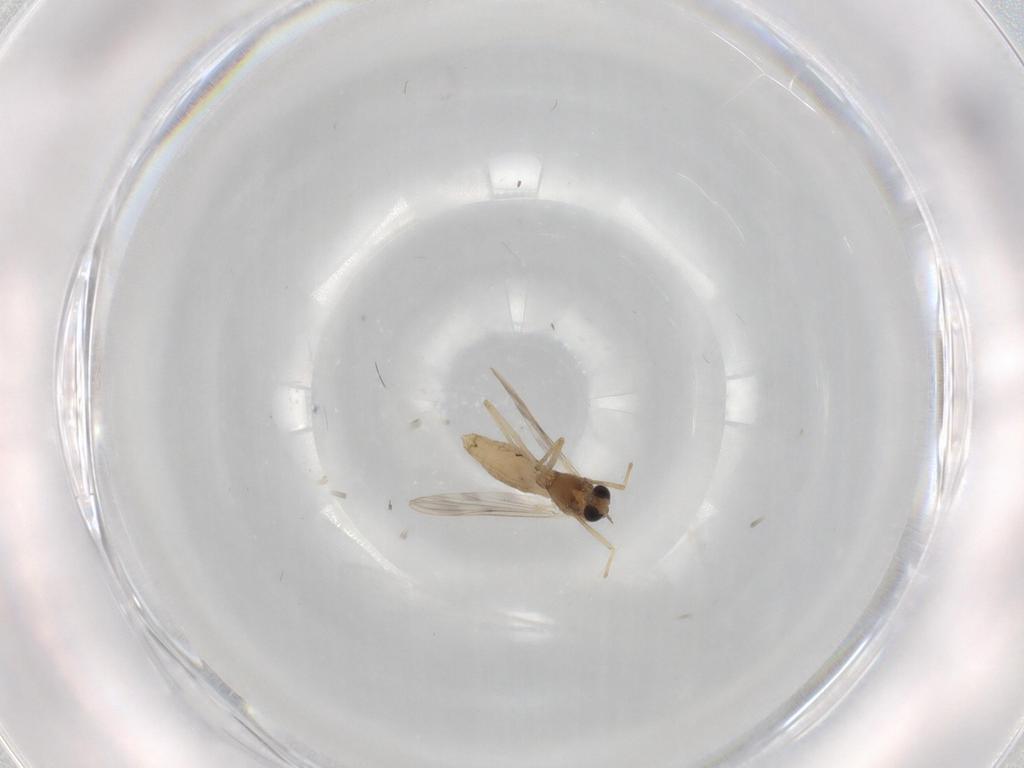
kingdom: Animalia
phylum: Arthropoda
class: Insecta
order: Diptera
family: Chironomidae
